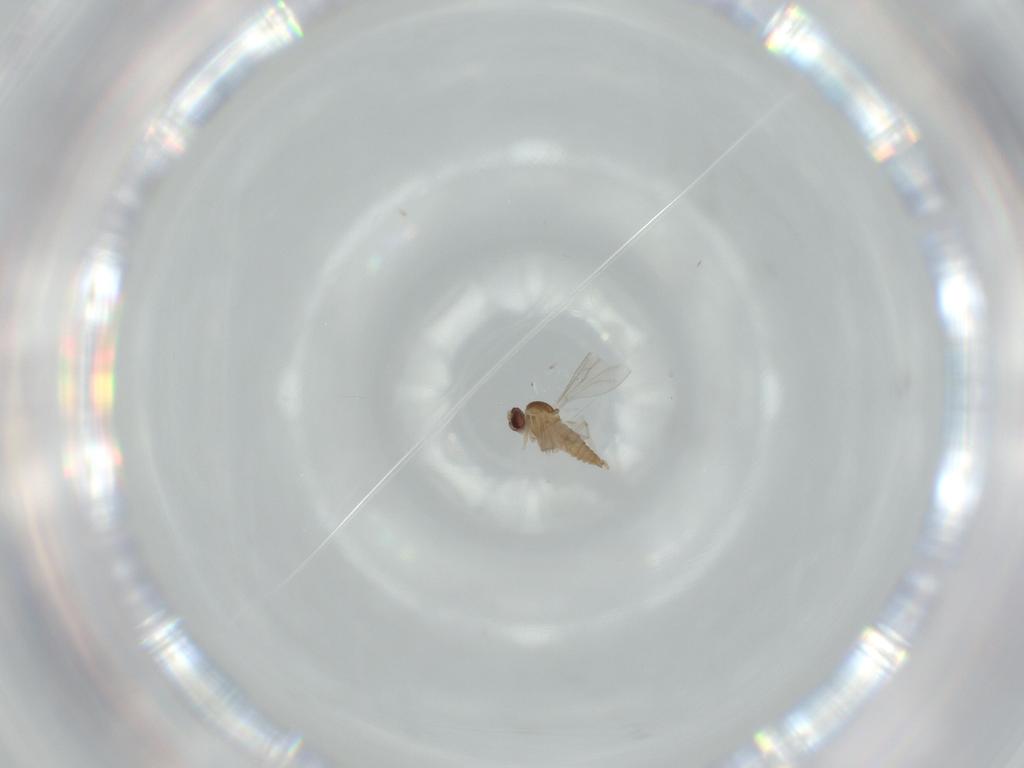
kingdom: Animalia
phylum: Arthropoda
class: Insecta
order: Diptera
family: Cecidomyiidae
